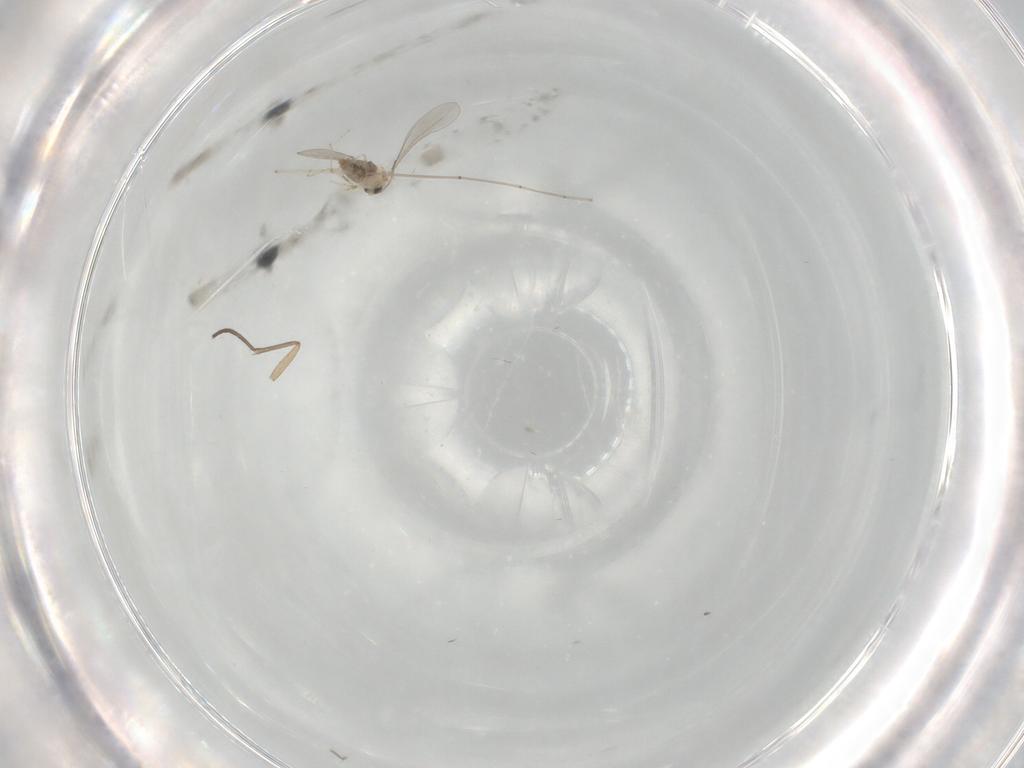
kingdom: Animalia
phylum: Arthropoda
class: Insecta
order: Diptera
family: Sciaridae
